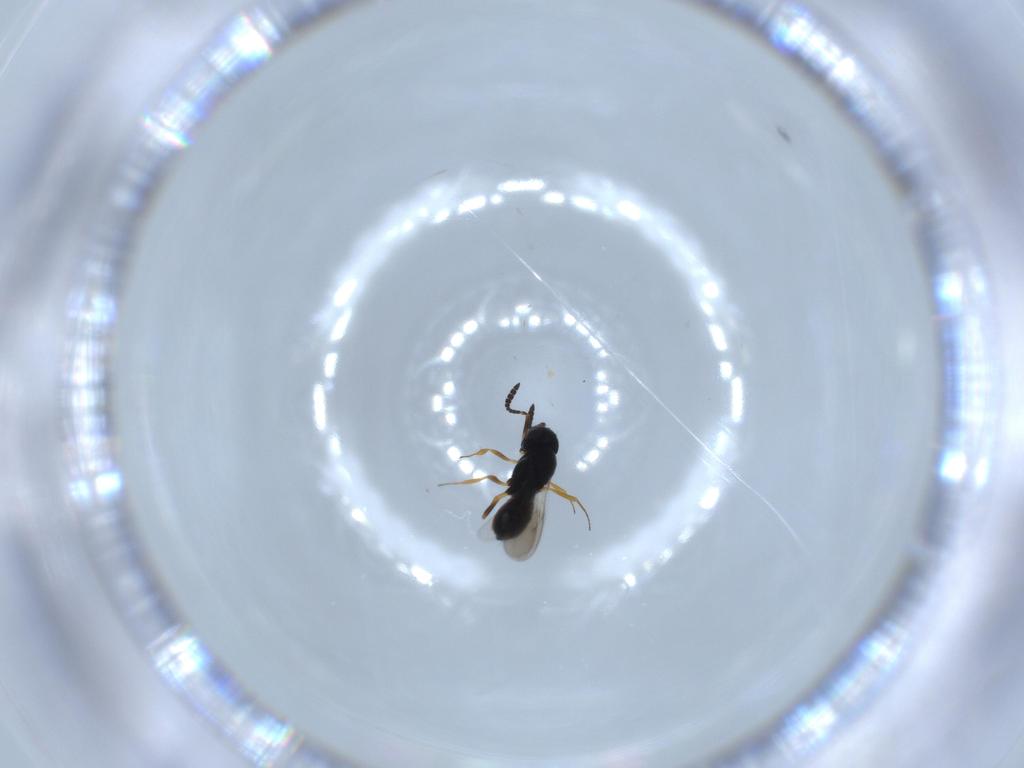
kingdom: Animalia
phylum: Arthropoda
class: Insecta
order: Hymenoptera
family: Scelionidae
